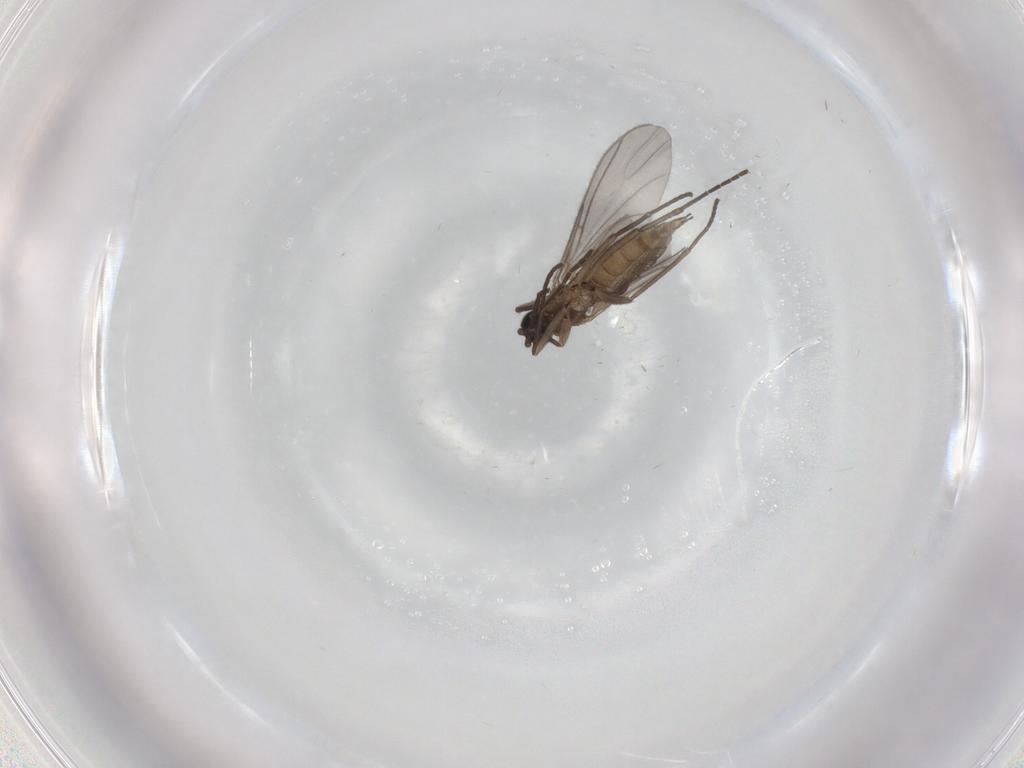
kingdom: Animalia
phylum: Arthropoda
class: Insecta
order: Diptera
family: Sciaridae
